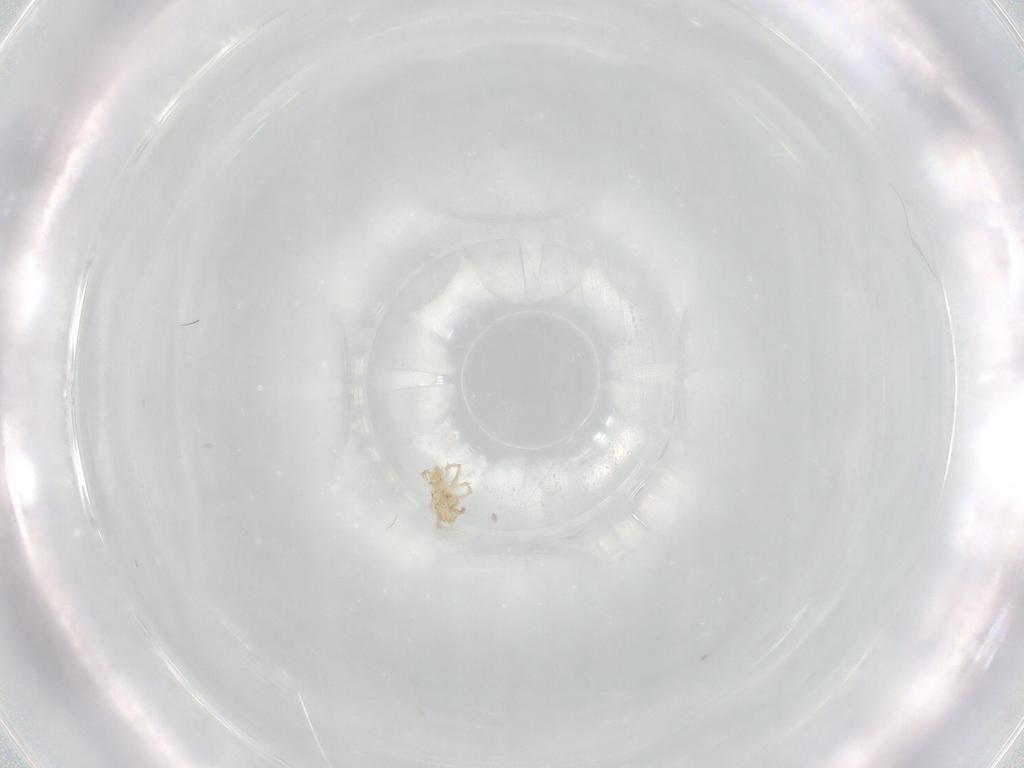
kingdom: Animalia
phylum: Arthropoda
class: Arachnida
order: Trombidiformes
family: Erythraeidae
